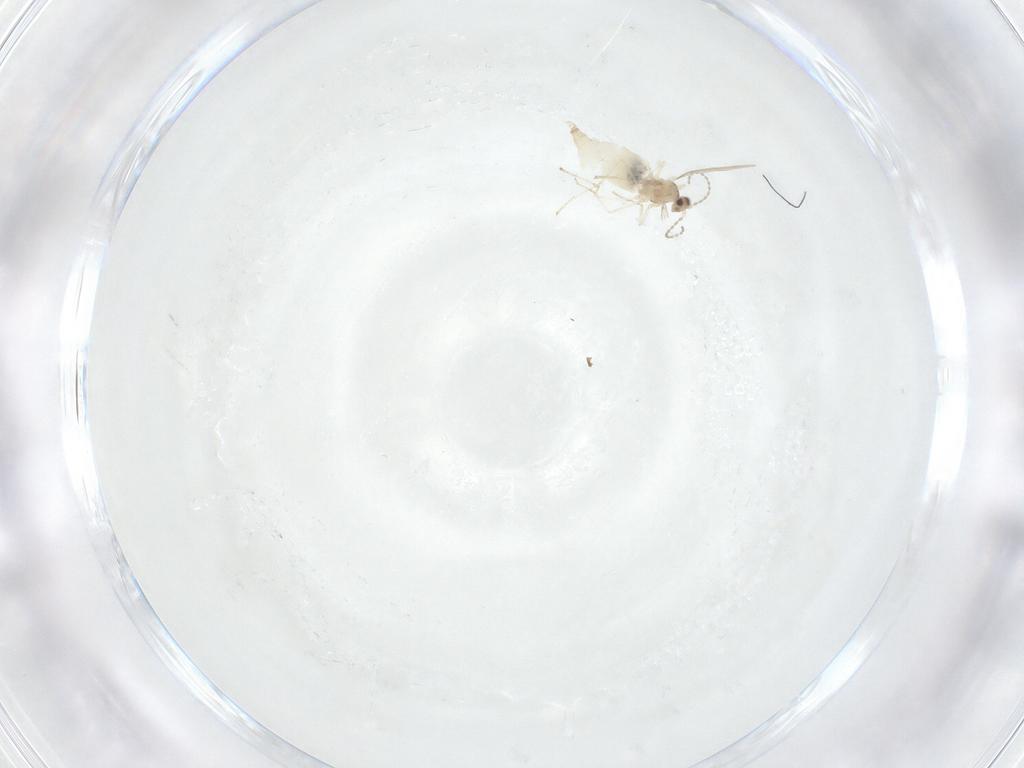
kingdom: Animalia
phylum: Arthropoda
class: Insecta
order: Diptera
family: Cecidomyiidae
